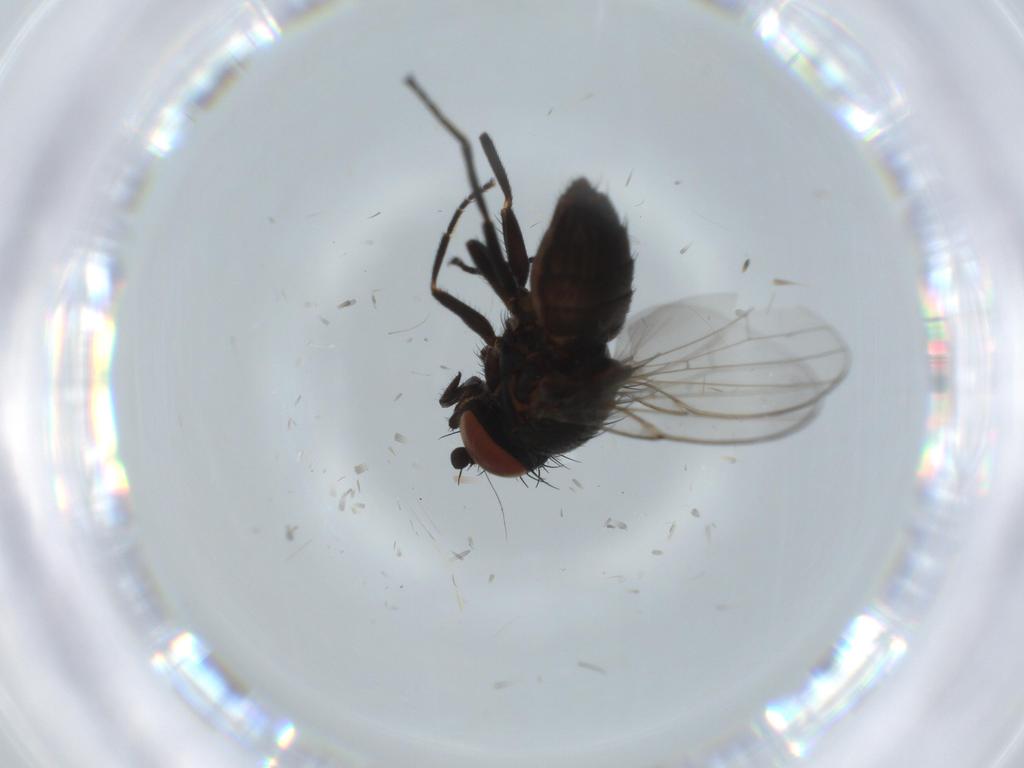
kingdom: Animalia
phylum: Arthropoda
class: Insecta
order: Diptera
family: Milichiidae
